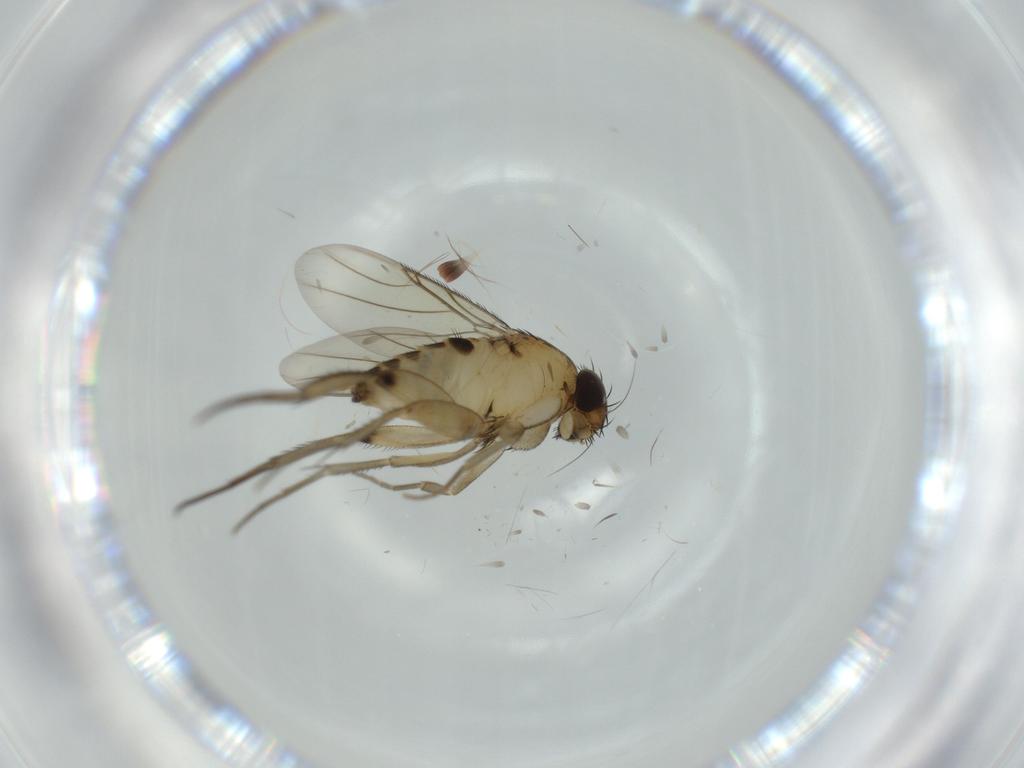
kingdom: Animalia
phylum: Arthropoda
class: Insecta
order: Diptera
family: Phoridae
